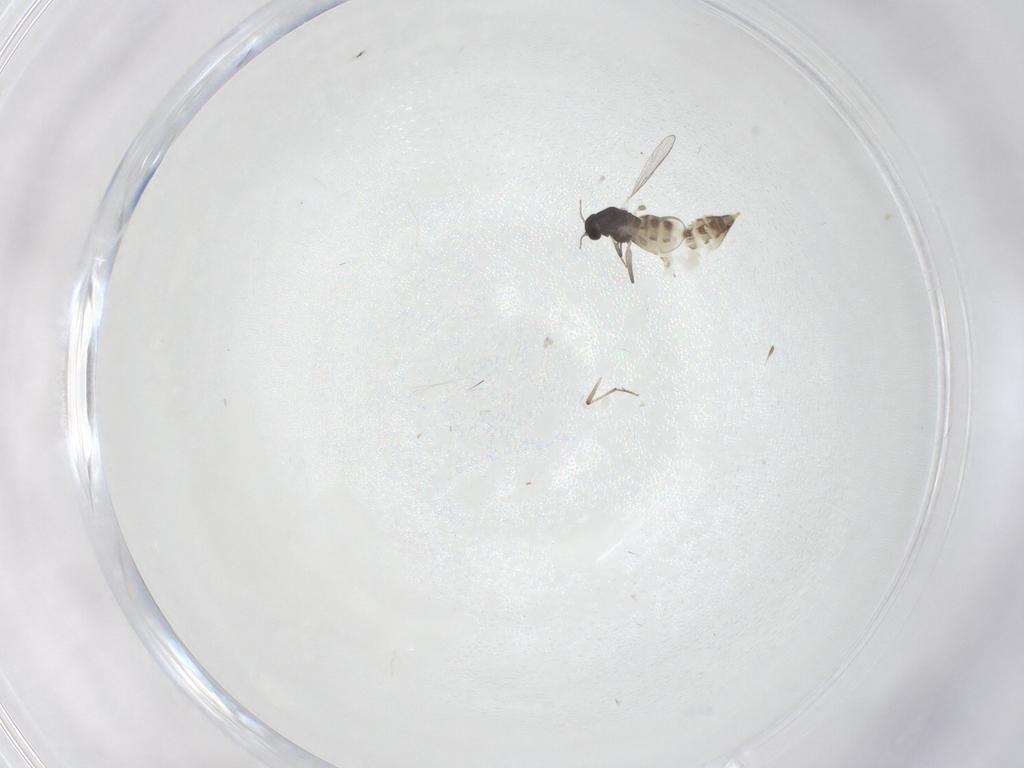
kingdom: Animalia
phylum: Arthropoda
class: Insecta
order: Diptera
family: Chironomidae
